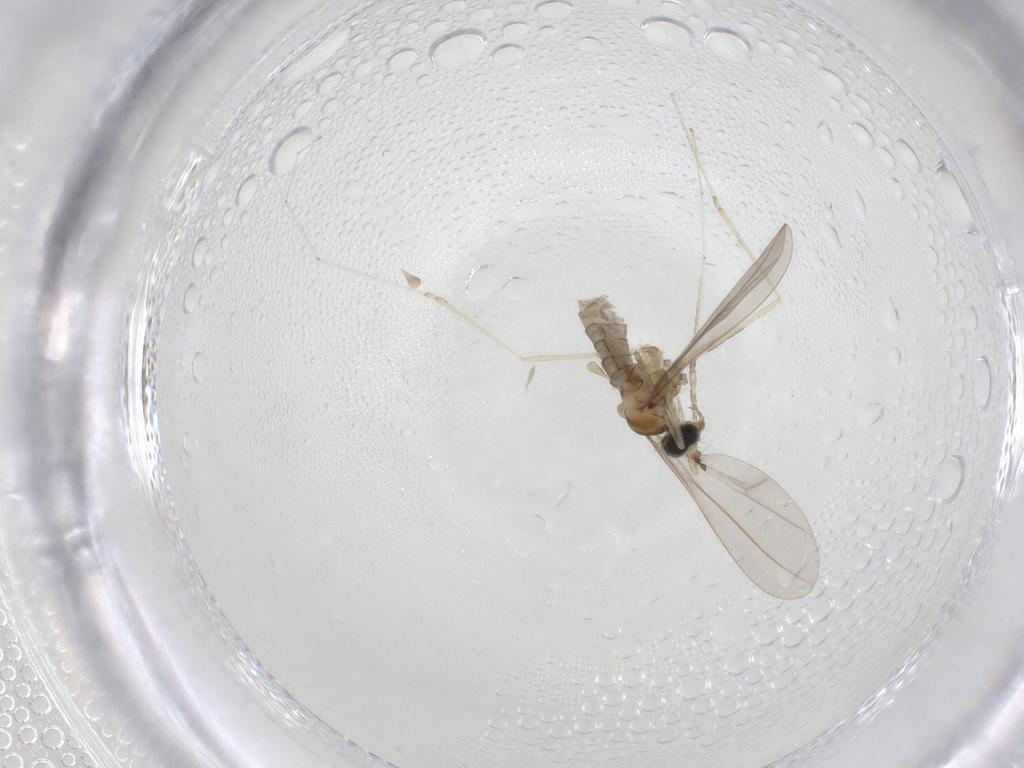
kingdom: Animalia
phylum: Arthropoda
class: Insecta
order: Diptera
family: Cecidomyiidae
